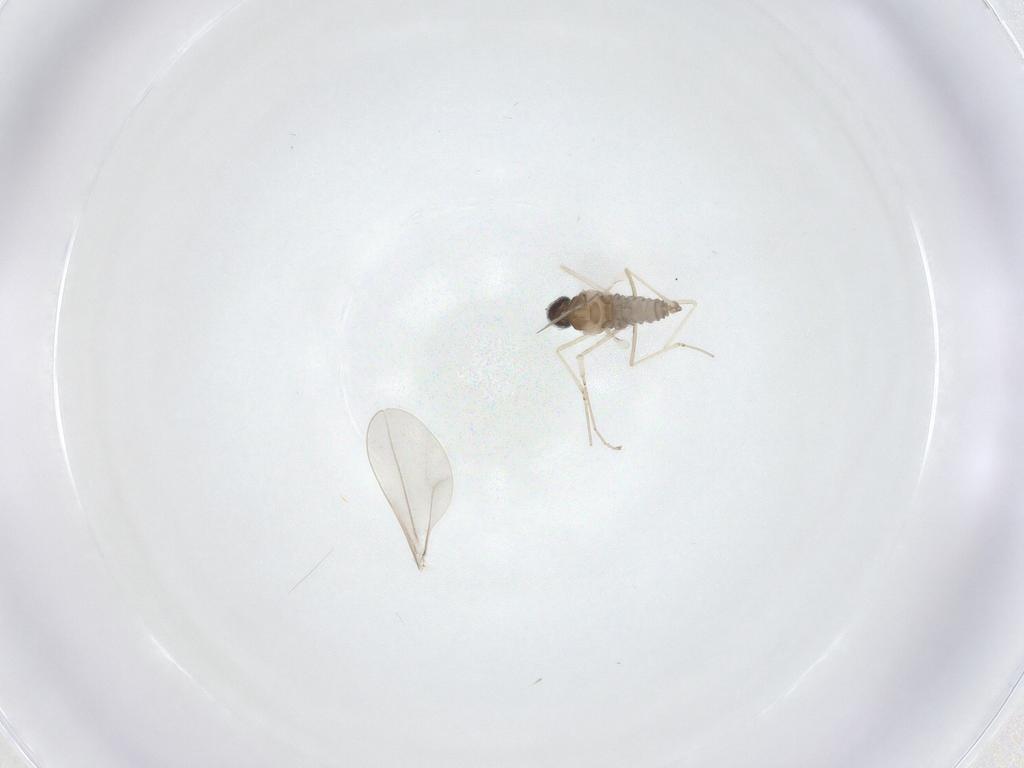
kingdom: Animalia
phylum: Arthropoda
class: Insecta
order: Diptera
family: Cecidomyiidae
